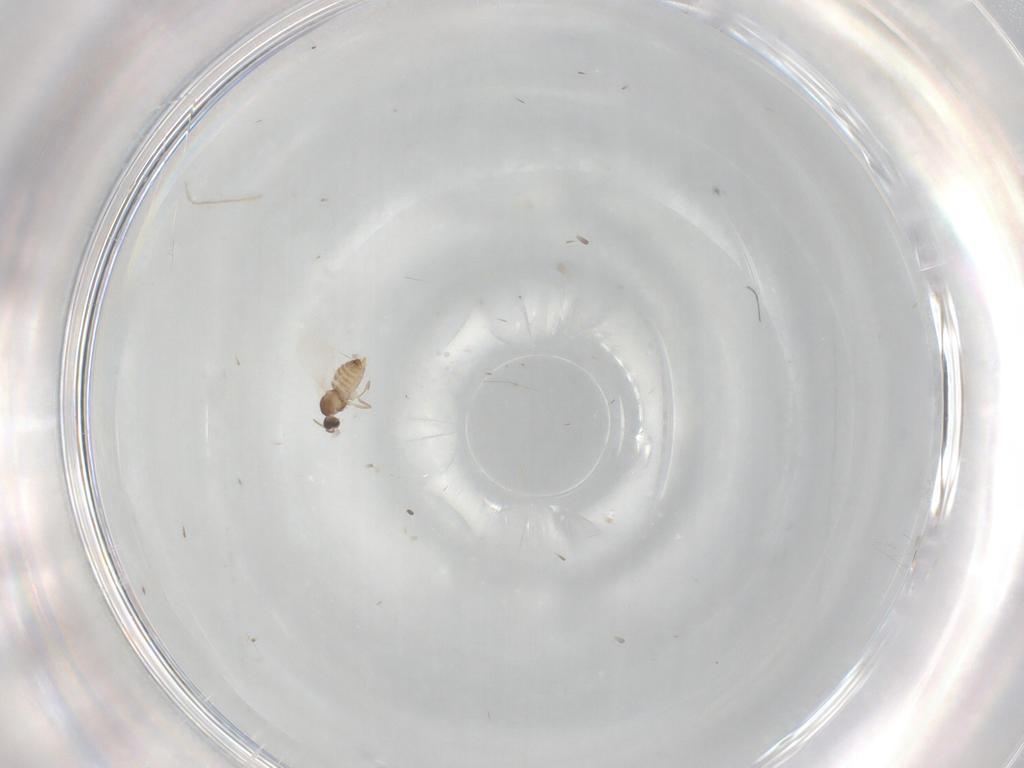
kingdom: Animalia
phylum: Arthropoda
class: Insecta
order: Diptera
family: Cecidomyiidae
